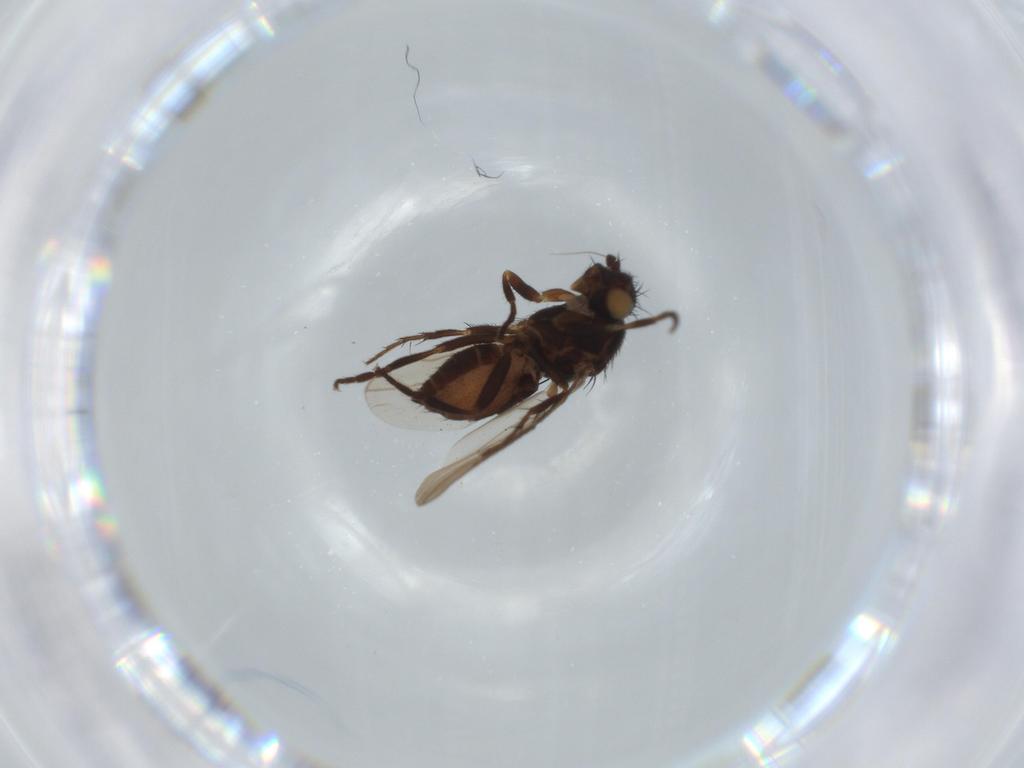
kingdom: Animalia
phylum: Arthropoda
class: Insecta
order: Diptera
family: Sphaeroceridae
